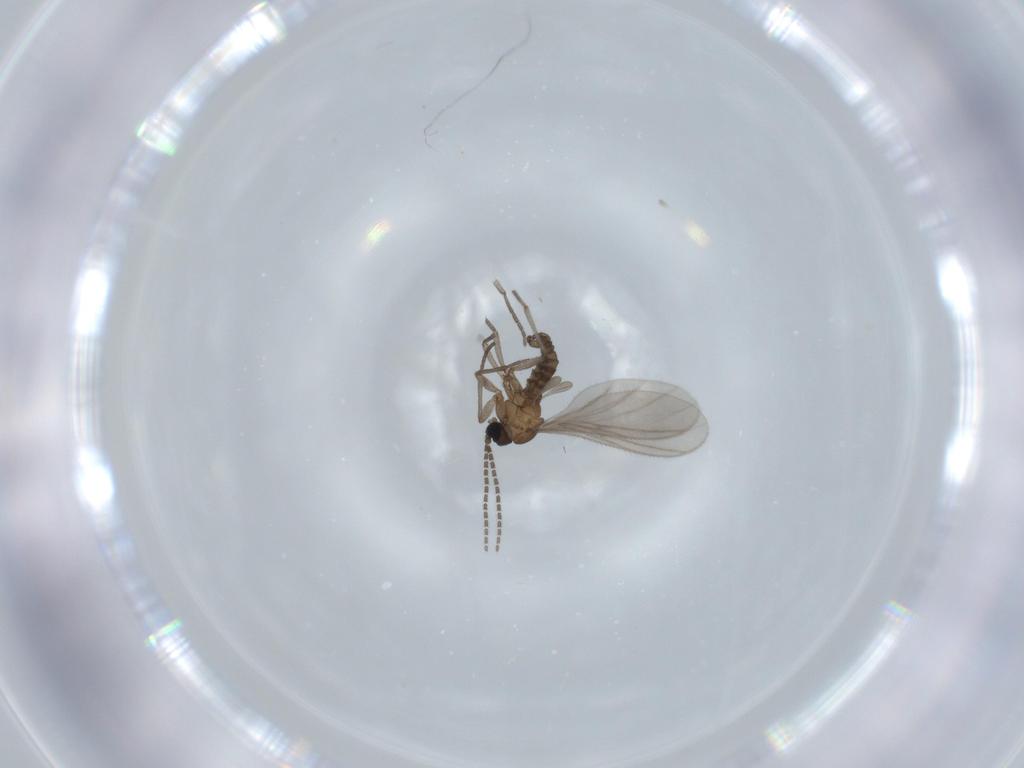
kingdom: Animalia
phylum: Arthropoda
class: Insecta
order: Diptera
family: Sciaridae
